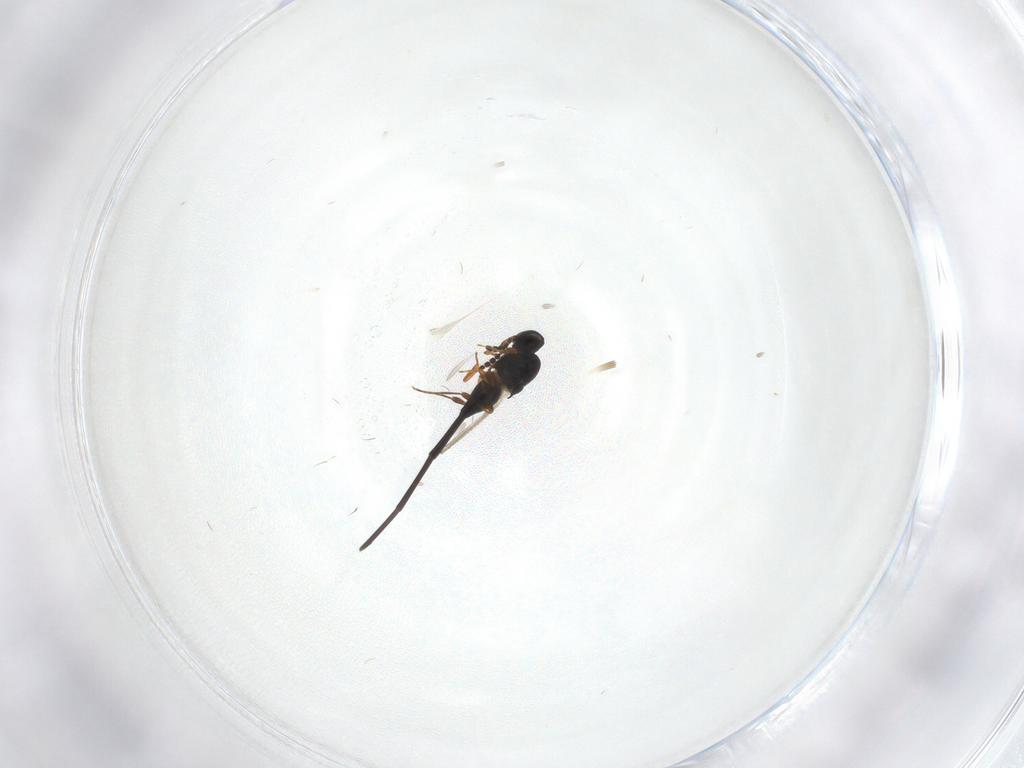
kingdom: Animalia
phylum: Arthropoda
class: Insecta
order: Hymenoptera
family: Platygastridae
